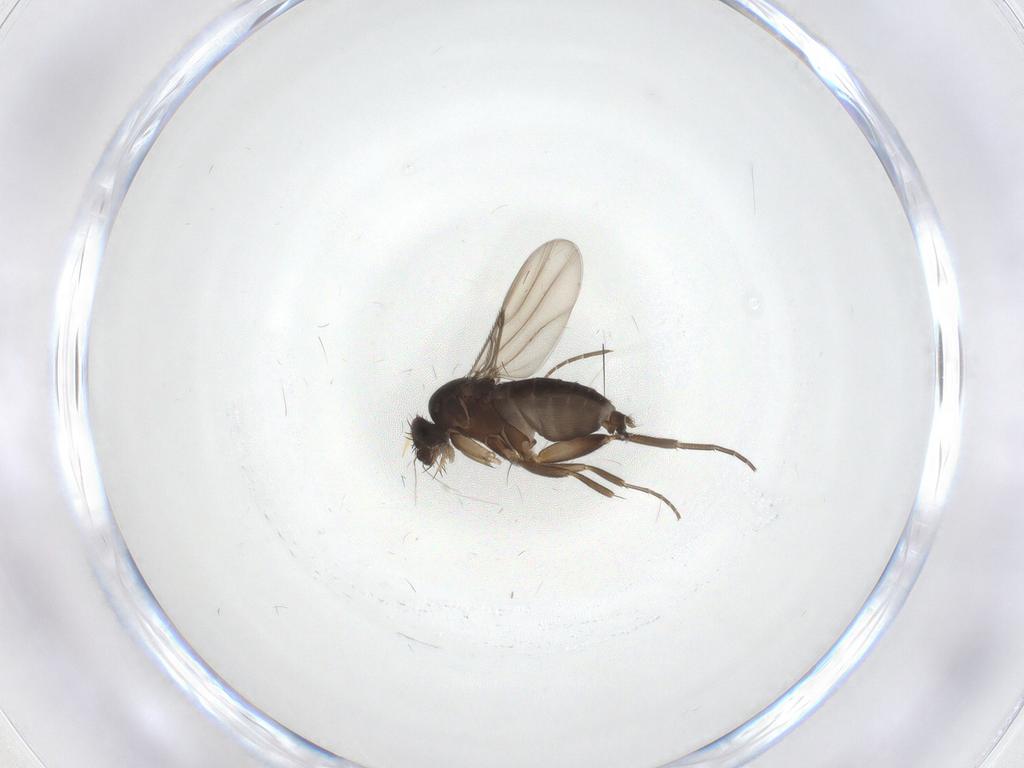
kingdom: Animalia
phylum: Arthropoda
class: Insecta
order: Diptera
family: Phoridae
